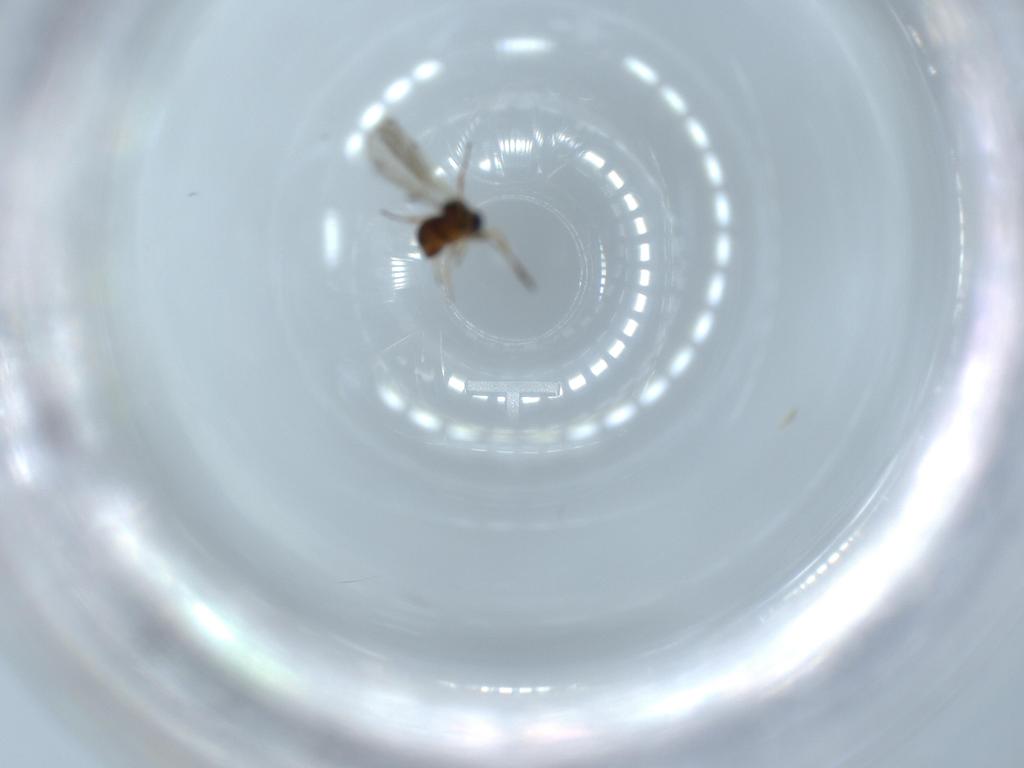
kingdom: Animalia
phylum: Arthropoda
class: Insecta
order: Hymenoptera
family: Figitidae
